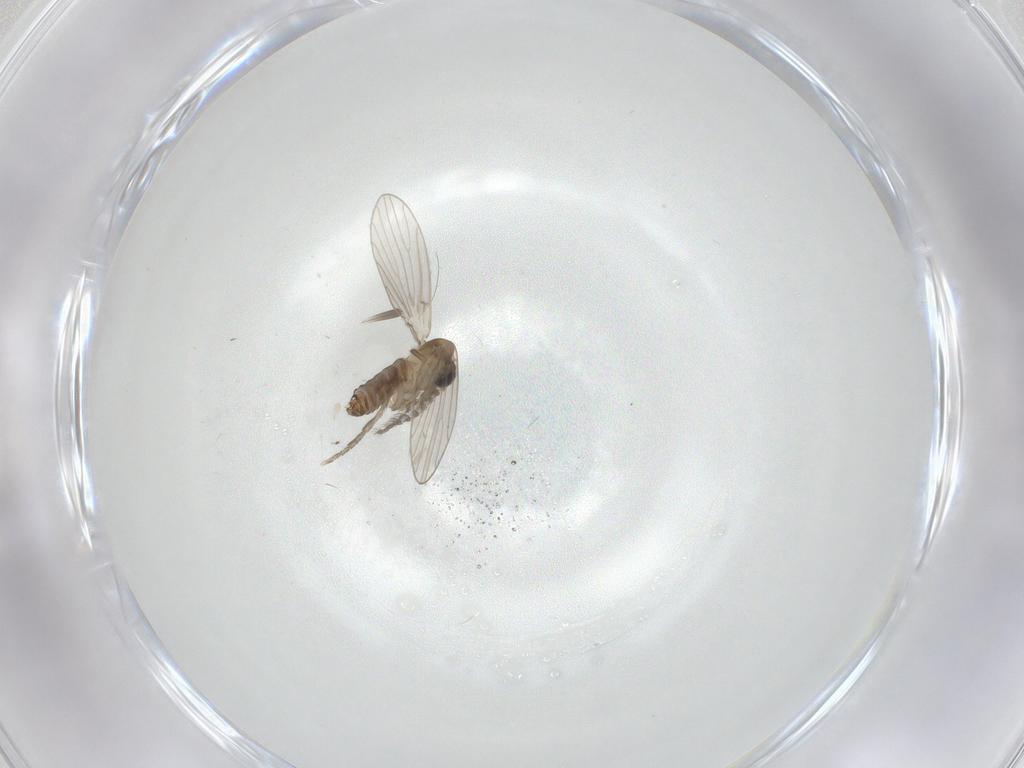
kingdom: Animalia
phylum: Arthropoda
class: Insecta
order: Diptera
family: Psychodidae
